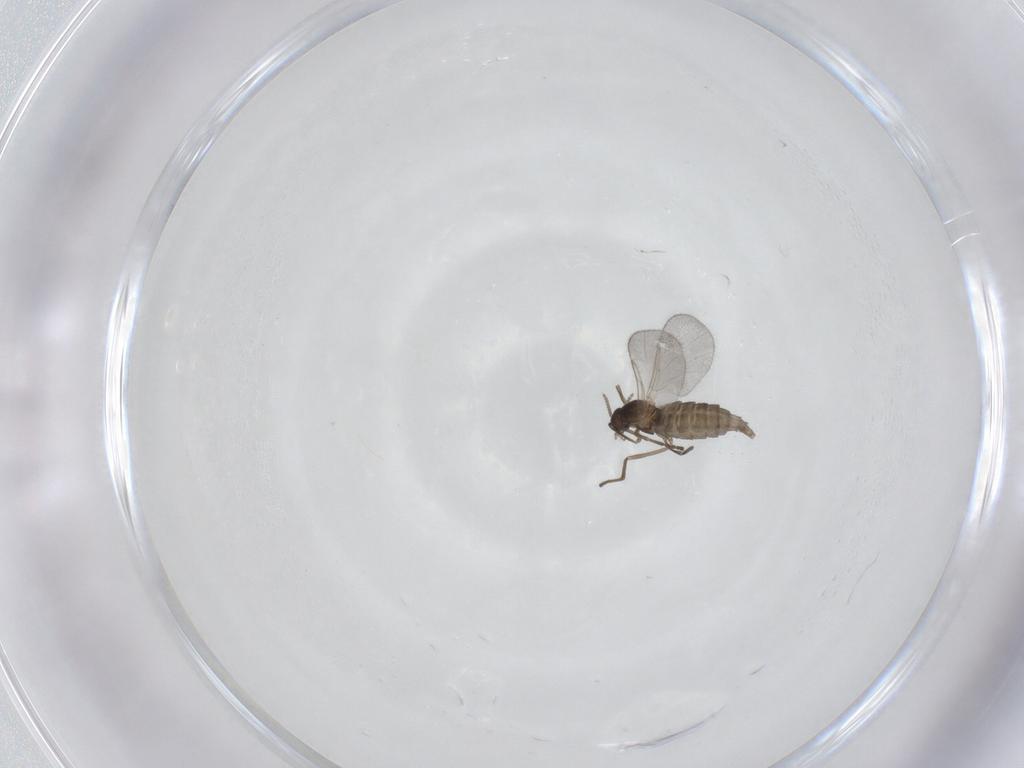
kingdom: Animalia
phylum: Arthropoda
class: Insecta
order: Diptera
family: Cecidomyiidae
